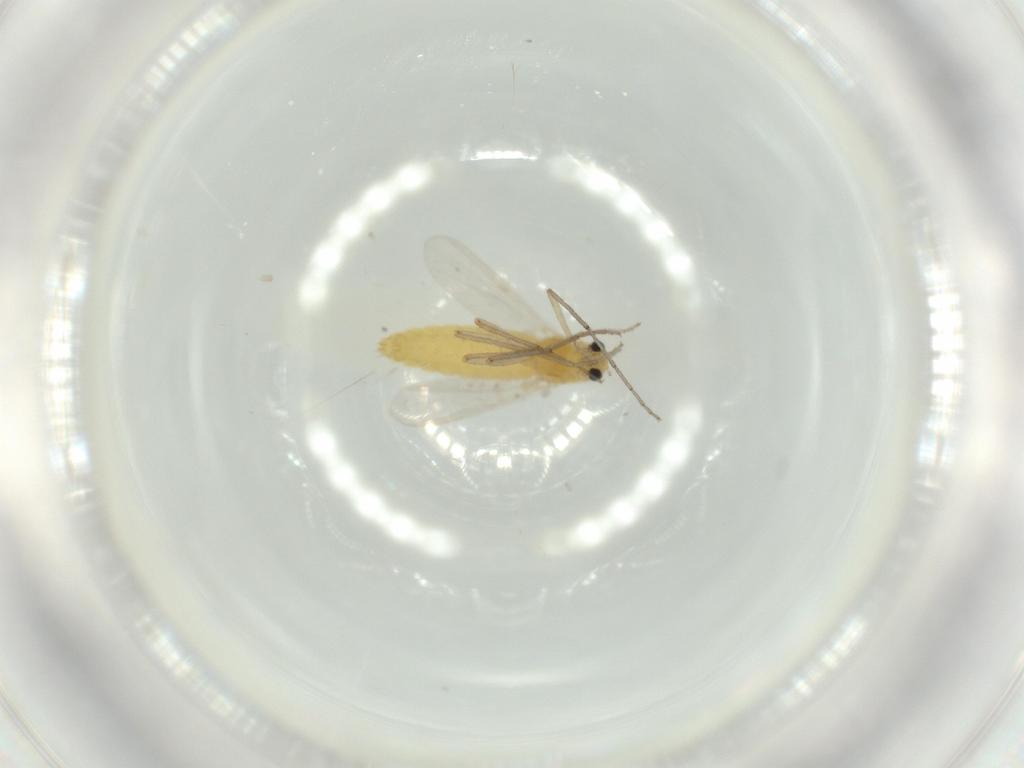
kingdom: Animalia
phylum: Arthropoda
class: Insecta
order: Diptera
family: Chironomidae
